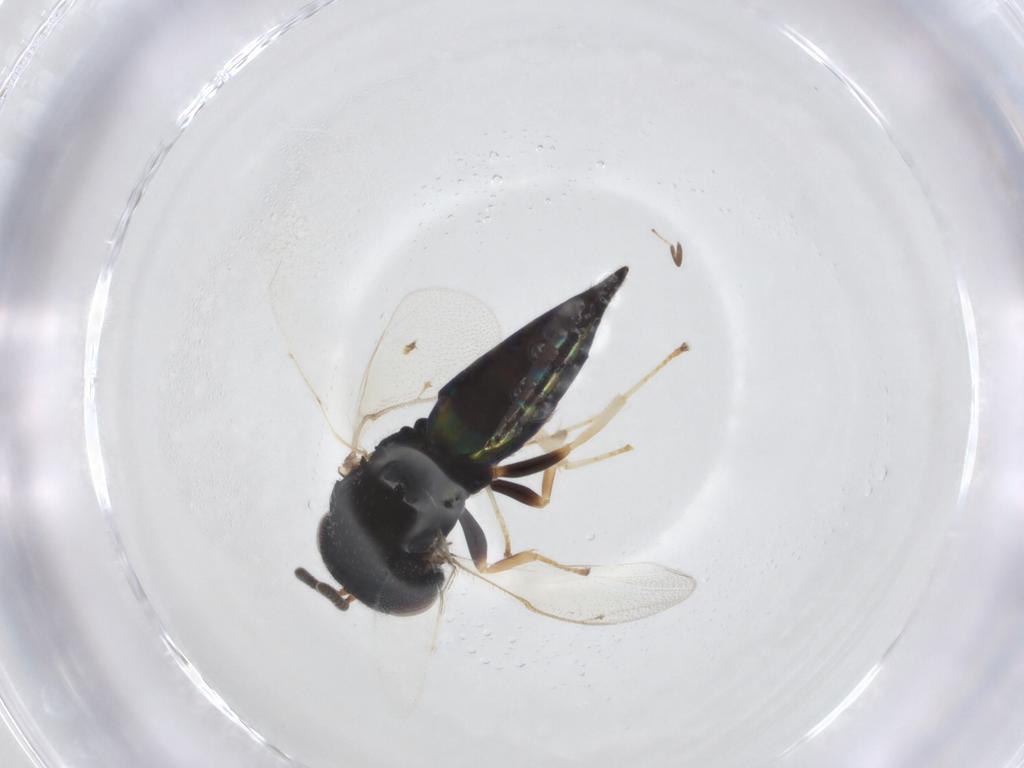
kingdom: Animalia
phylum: Arthropoda
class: Insecta
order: Hymenoptera
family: Pteromalidae
